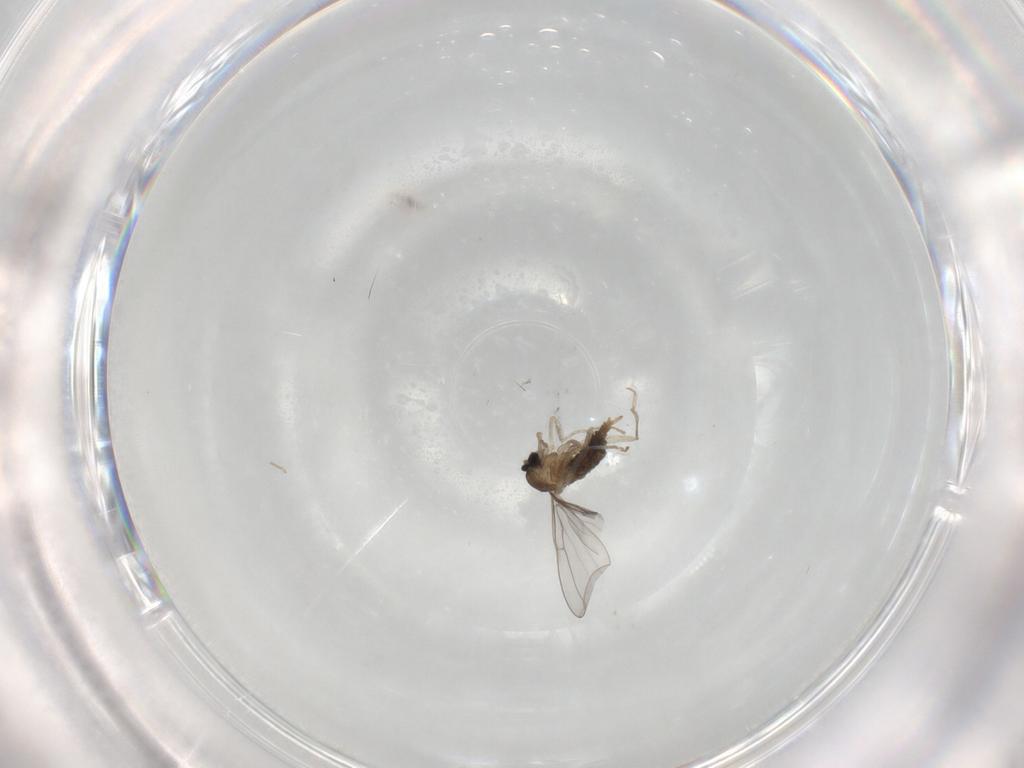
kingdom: Animalia
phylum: Arthropoda
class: Insecta
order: Diptera
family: Cecidomyiidae
